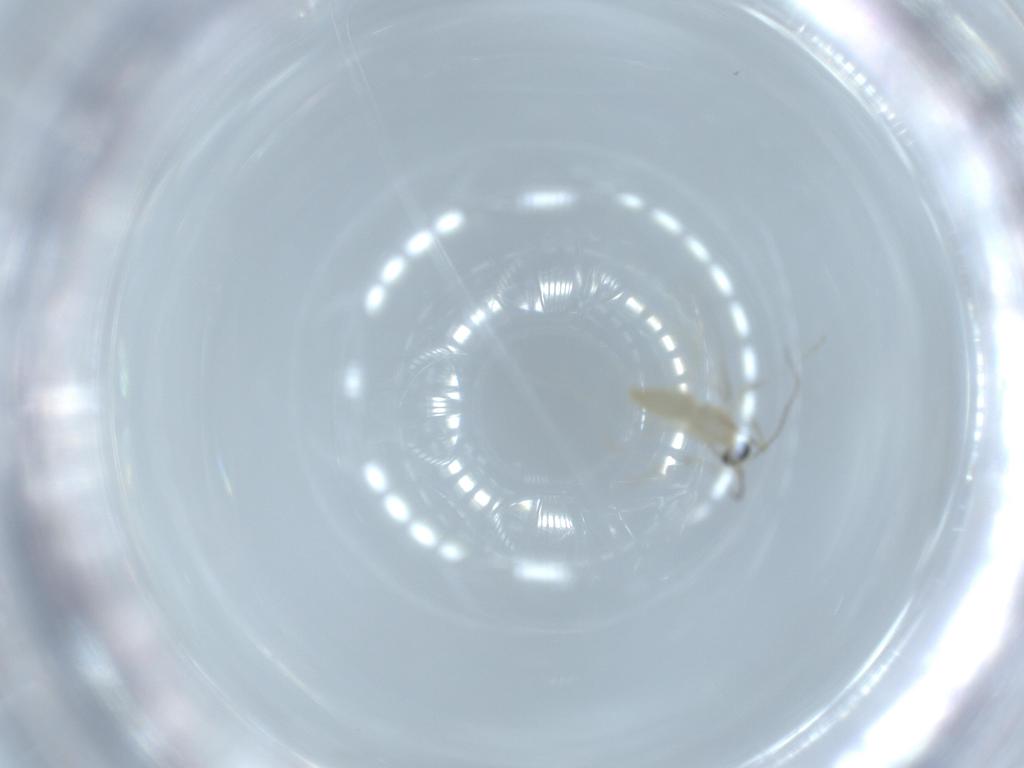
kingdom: Animalia
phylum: Arthropoda
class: Insecta
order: Diptera
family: Cecidomyiidae
